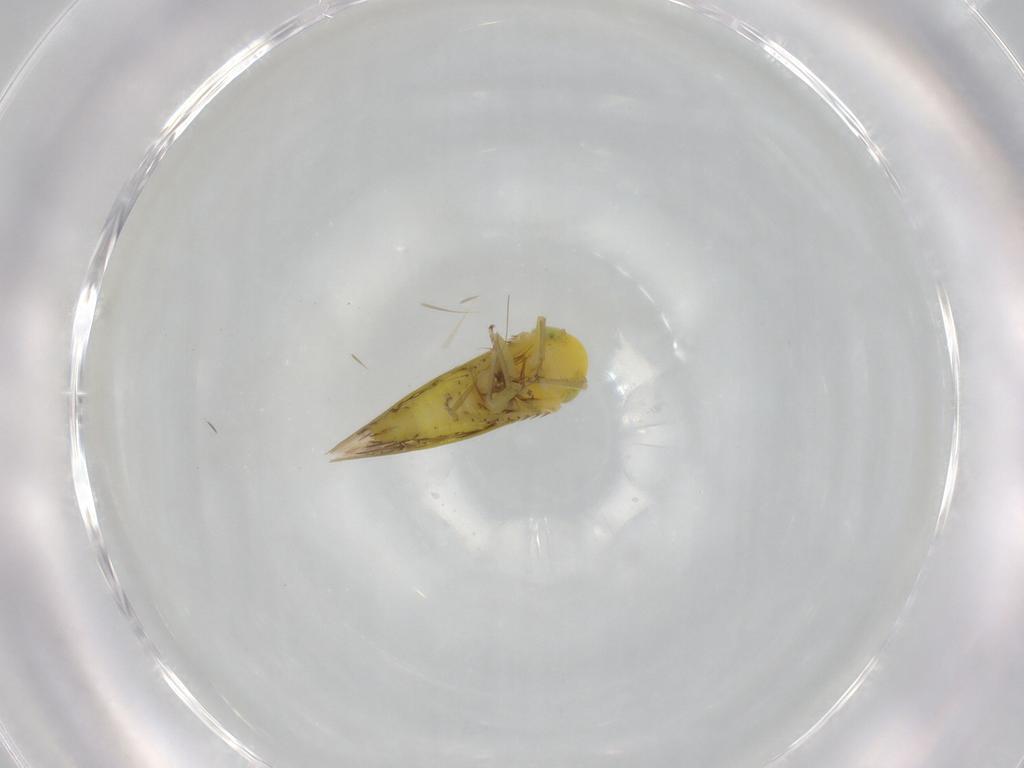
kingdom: Animalia
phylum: Arthropoda
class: Insecta
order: Hemiptera
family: Cicadellidae
